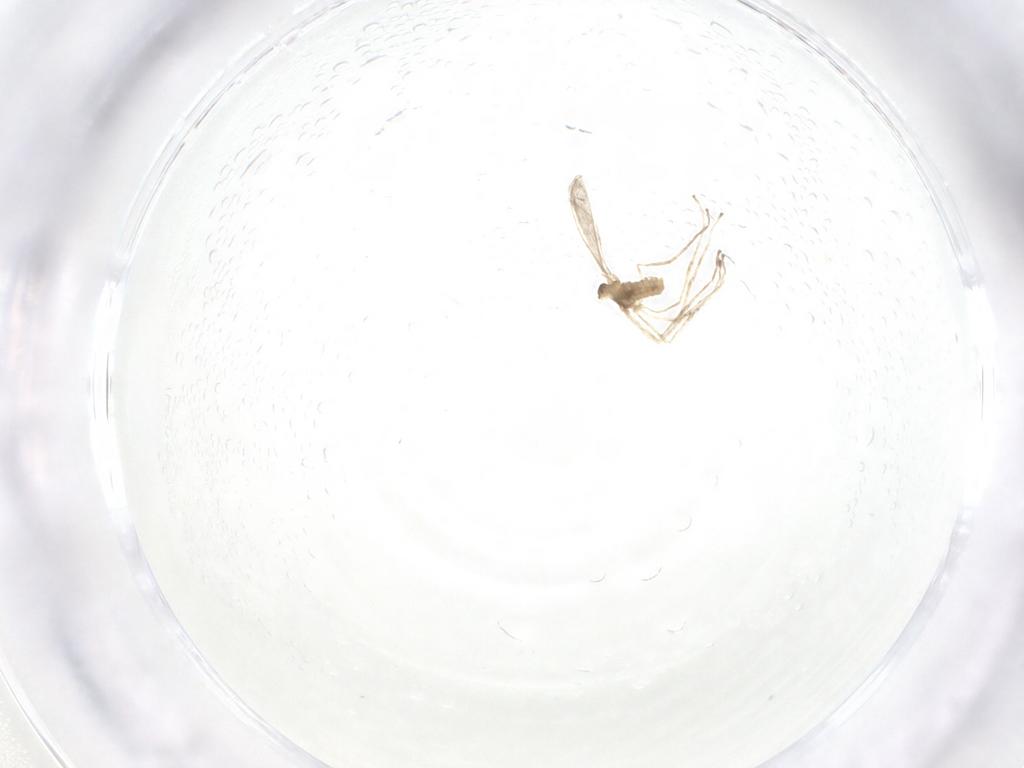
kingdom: Animalia
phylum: Arthropoda
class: Insecta
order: Diptera
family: Cecidomyiidae
